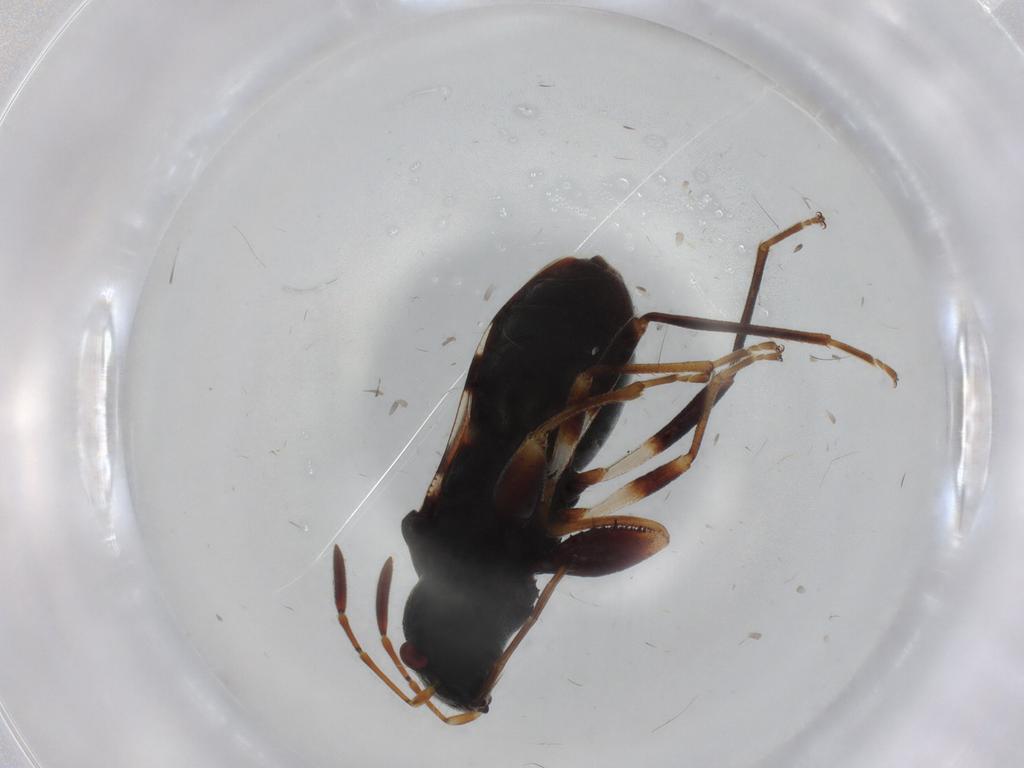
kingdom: Animalia
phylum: Arthropoda
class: Insecta
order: Hemiptera
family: Rhyparochromidae
